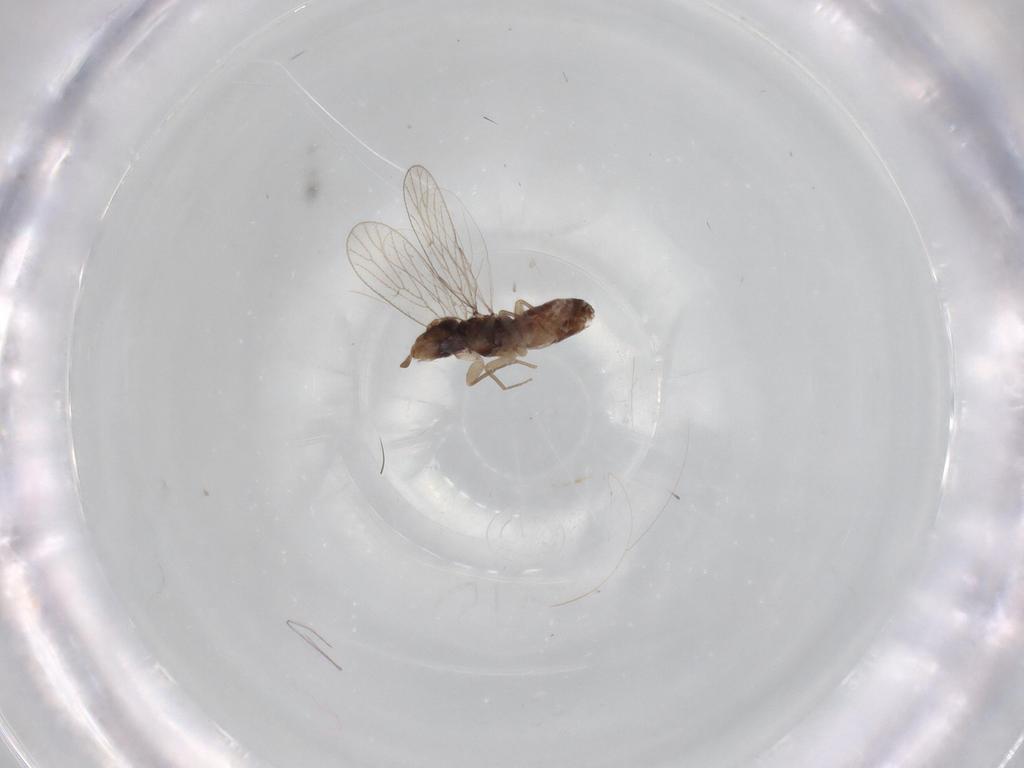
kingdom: Animalia
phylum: Arthropoda
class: Insecta
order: Psocodea
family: Psoquillidae
